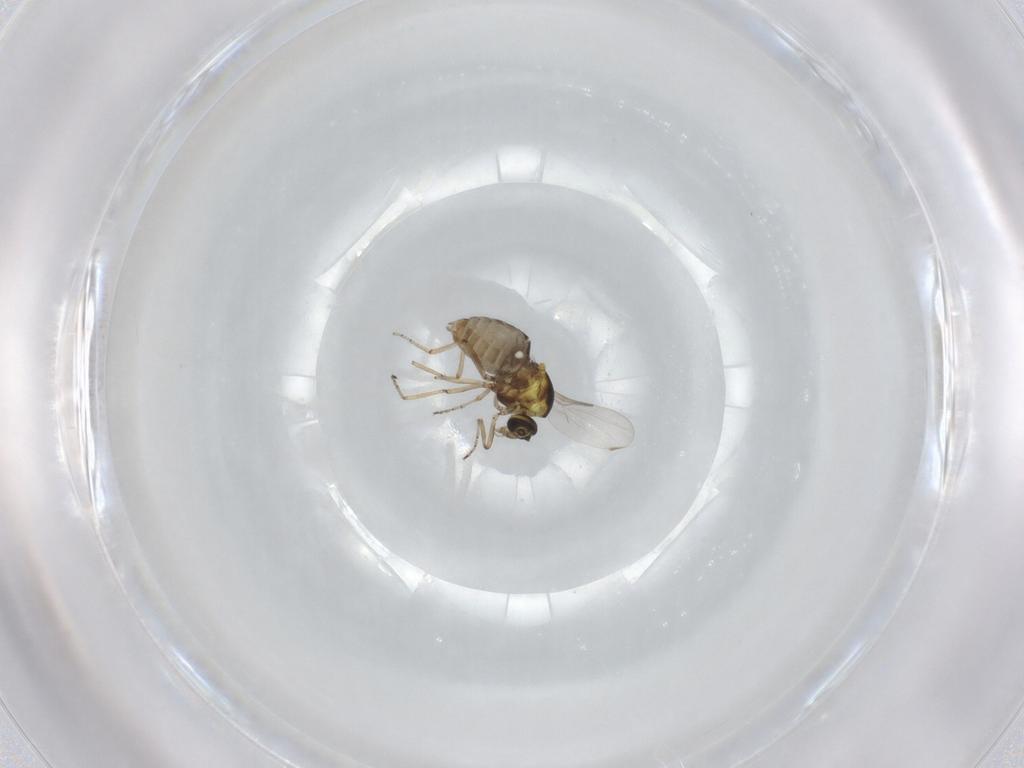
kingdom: Animalia
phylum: Arthropoda
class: Insecta
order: Diptera
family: Ceratopogonidae
